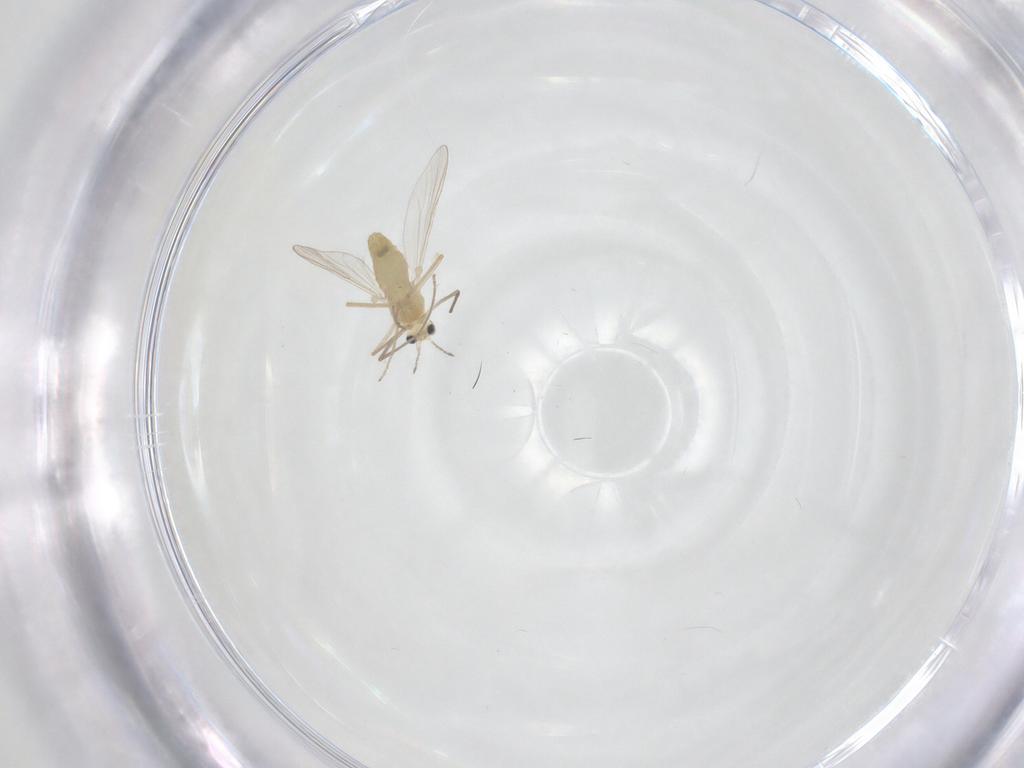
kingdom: Animalia
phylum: Arthropoda
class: Insecta
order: Diptera
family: Chironomidae
